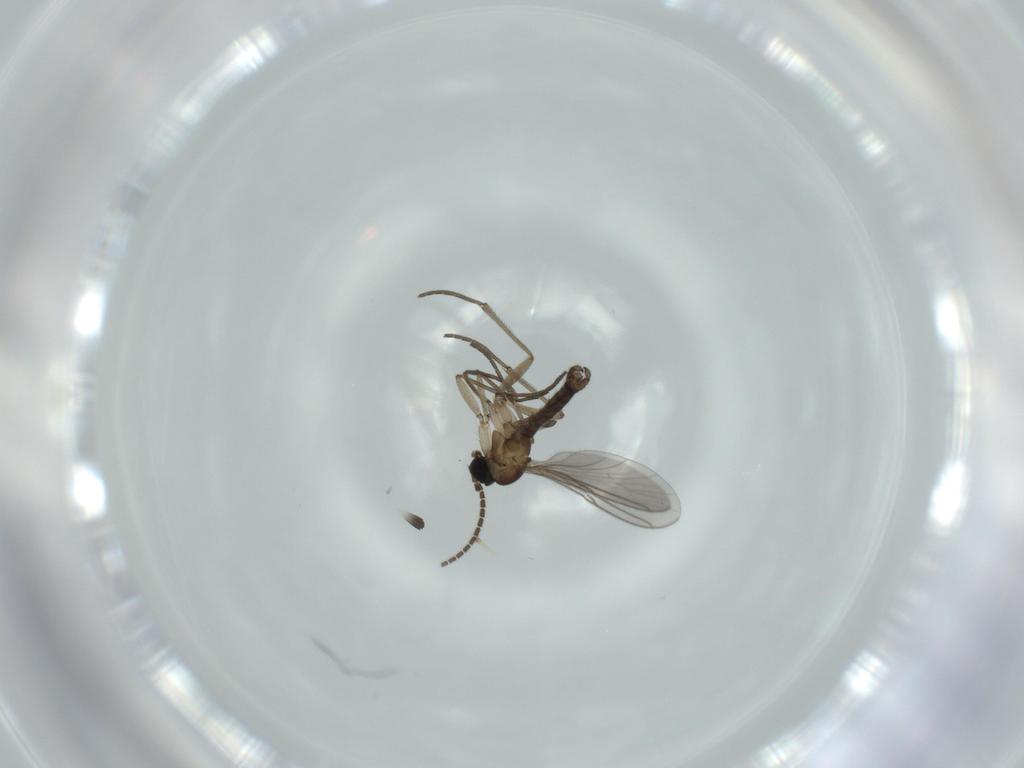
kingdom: Animalia
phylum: Arthropoda
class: Insecta
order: Diptera
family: Sciaridae
